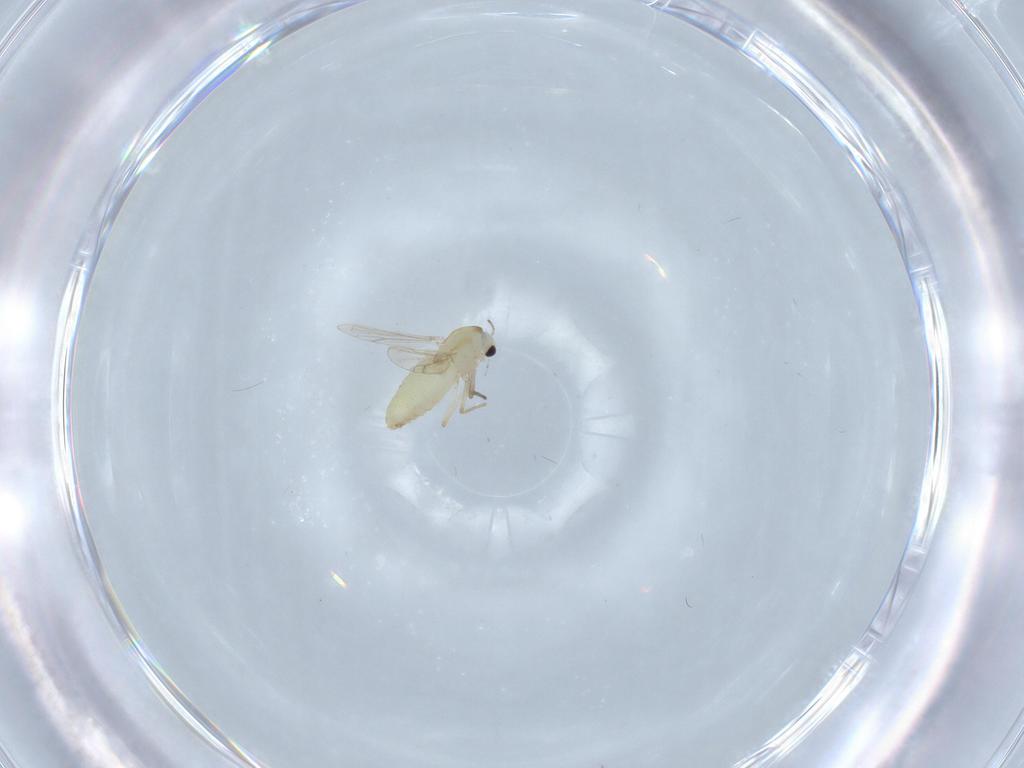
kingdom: Animalia
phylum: Arthropoda
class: Insecta
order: Diptera
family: Chironomidae
